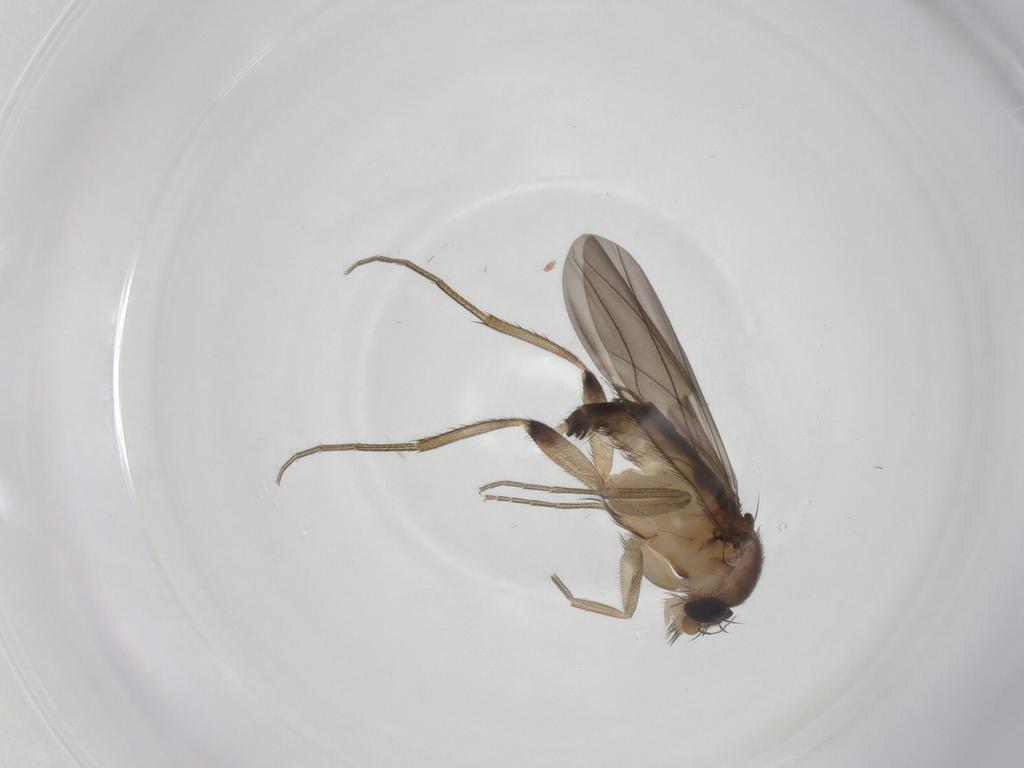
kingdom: Animalia
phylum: Arthropoda
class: Insecta
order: Diptera
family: Phoridae
